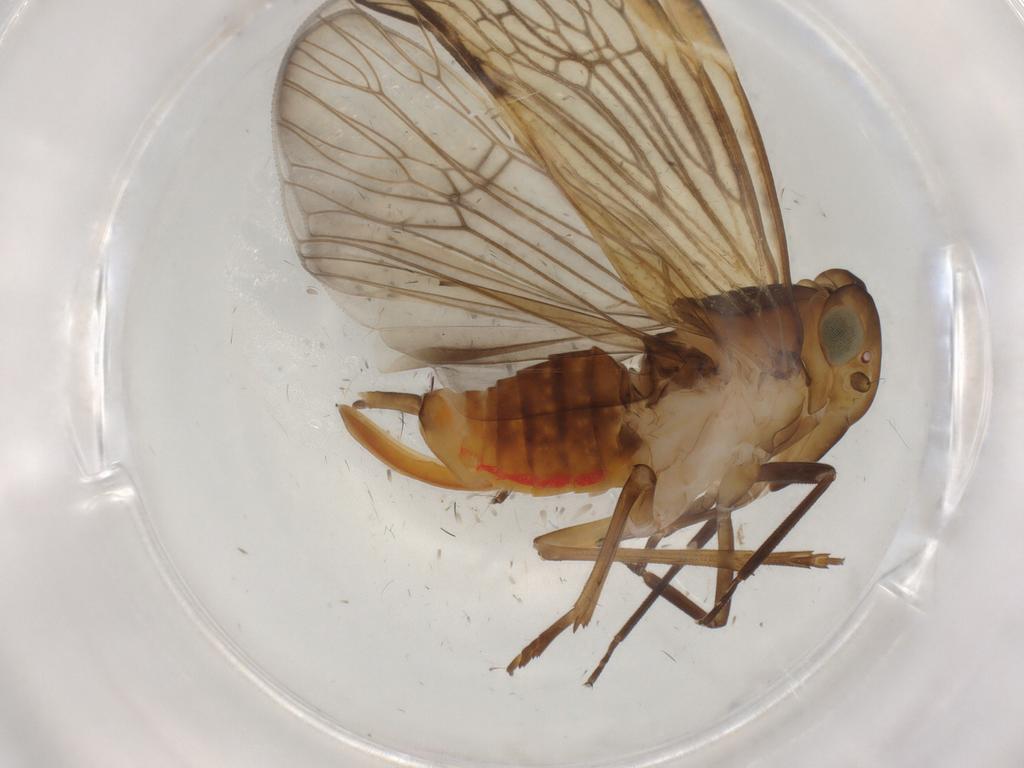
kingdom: Animalia
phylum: Arthropoda
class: Insecta
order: Hemiptera
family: Cixiidae
